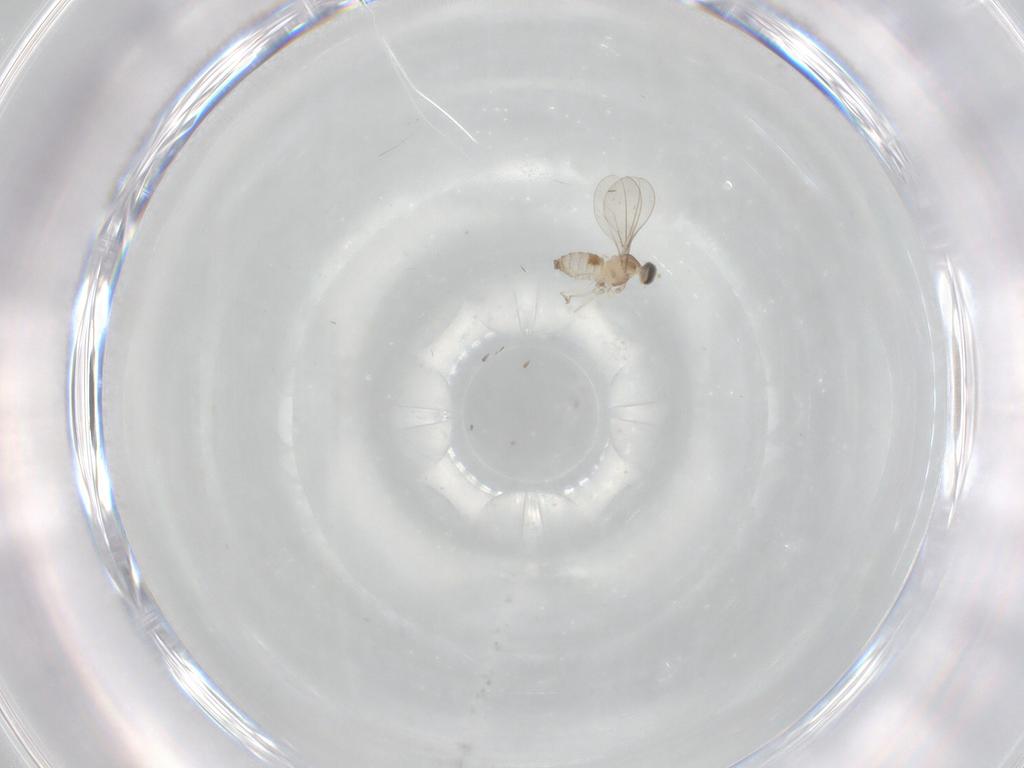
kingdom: Animalia
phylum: Arthropoda
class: Insecta
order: Diptera
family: Cecidomyiidae
